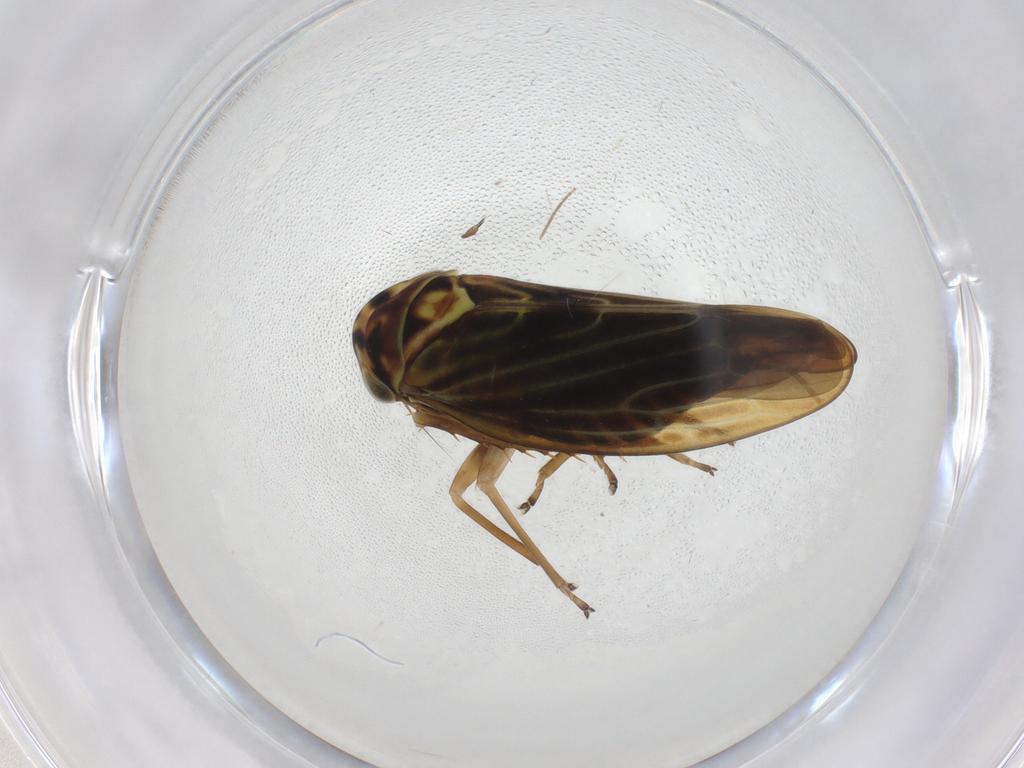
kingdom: Animalia
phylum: Arthropoda
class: Insecta
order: Hemiptera
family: Cicadellidae
